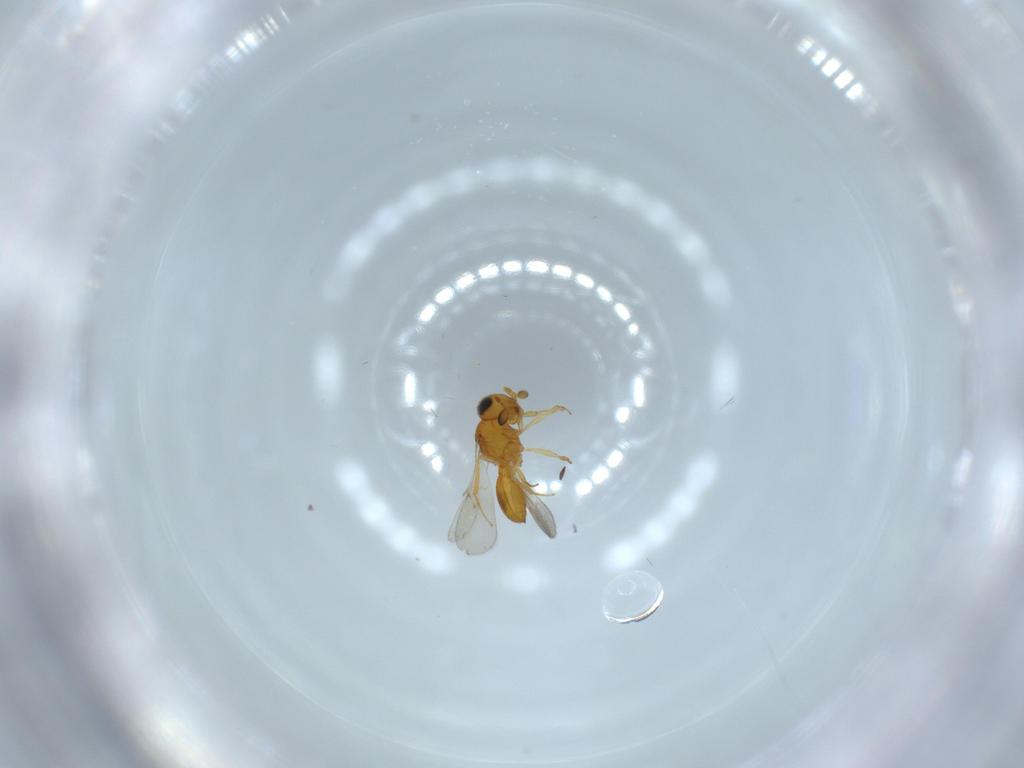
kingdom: Animalia
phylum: Arthropoda
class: Insecta
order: Hymenoptera
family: Scelionidae
